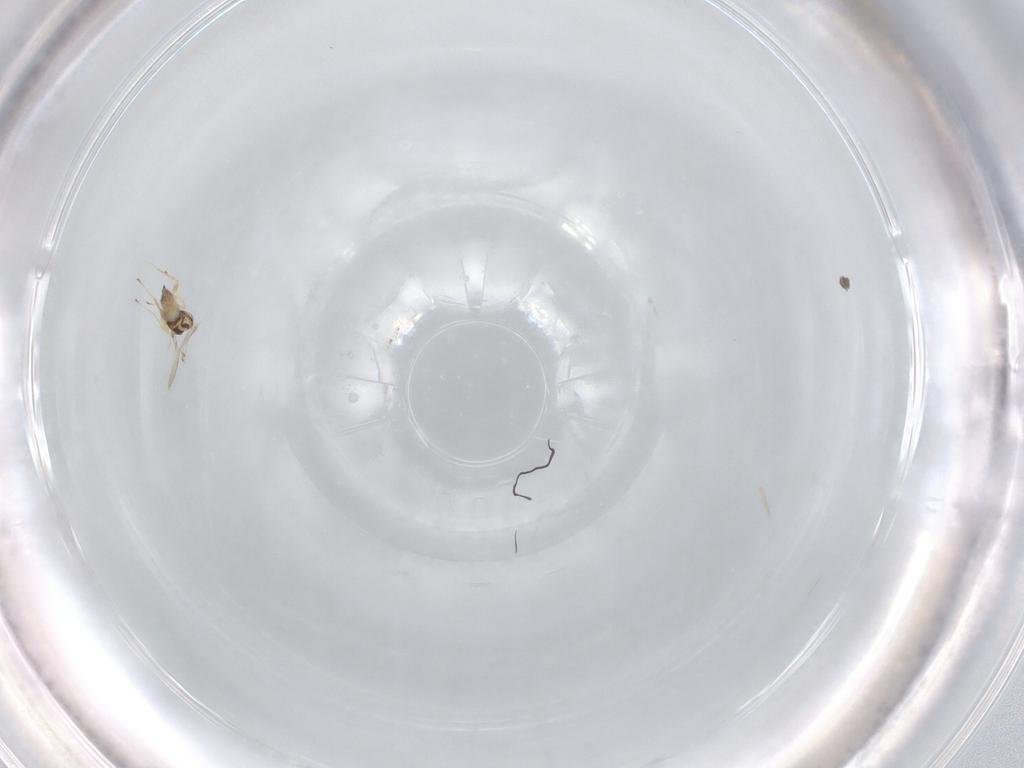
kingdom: Animalia
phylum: Arthropoda
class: Insecta
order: Hymenoptera
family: Mymaridae
